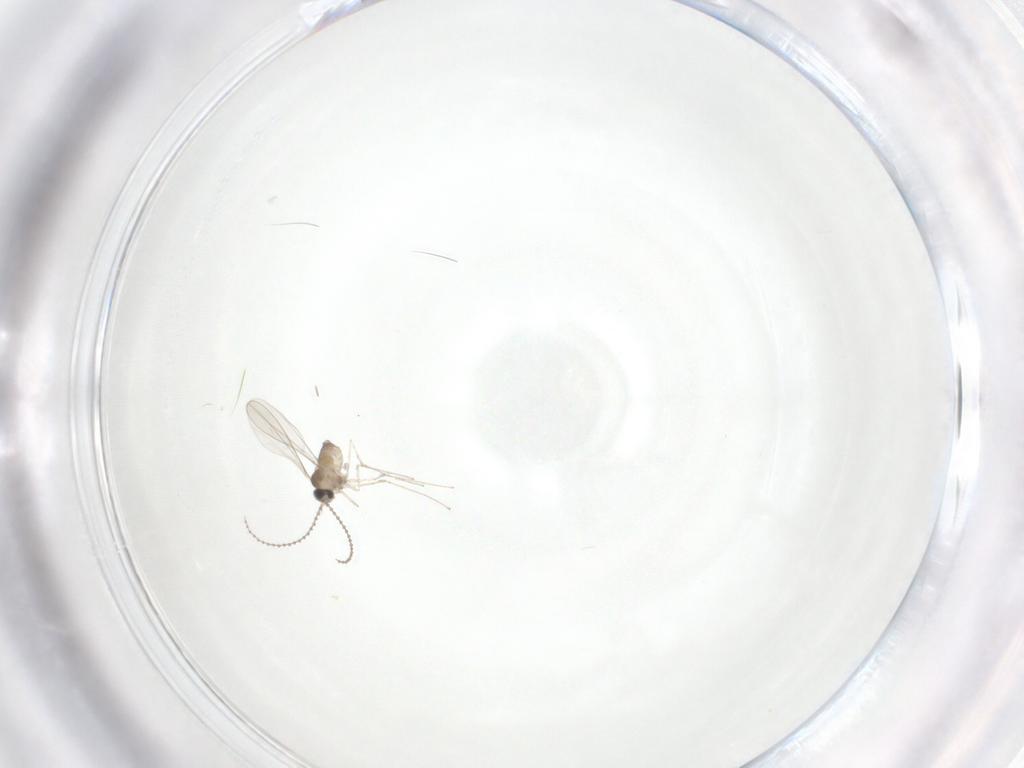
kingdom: Animalia
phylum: Arthropoda
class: Insecta
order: Diptera
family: Cecidomyiidae
